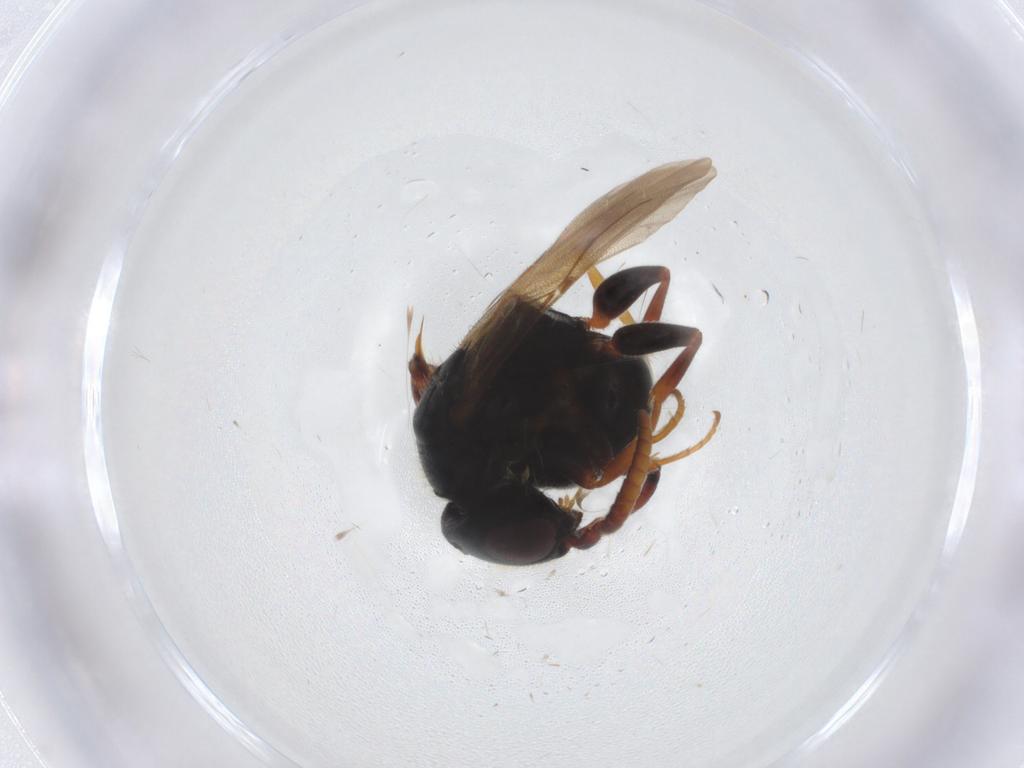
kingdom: Animalia
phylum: Arthropoda
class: Insecta
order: Hymenoptera
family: Bethylidae
